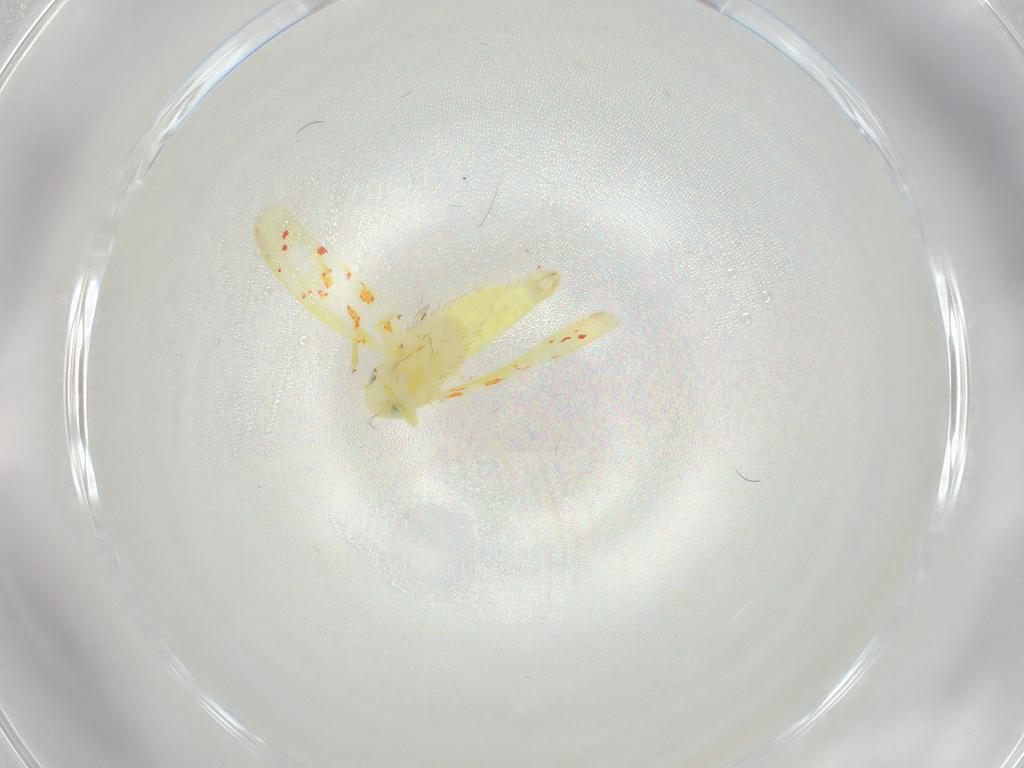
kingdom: Animalia
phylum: Arthropoda
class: Insecta
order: Hemiptera
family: Cicadellidae
